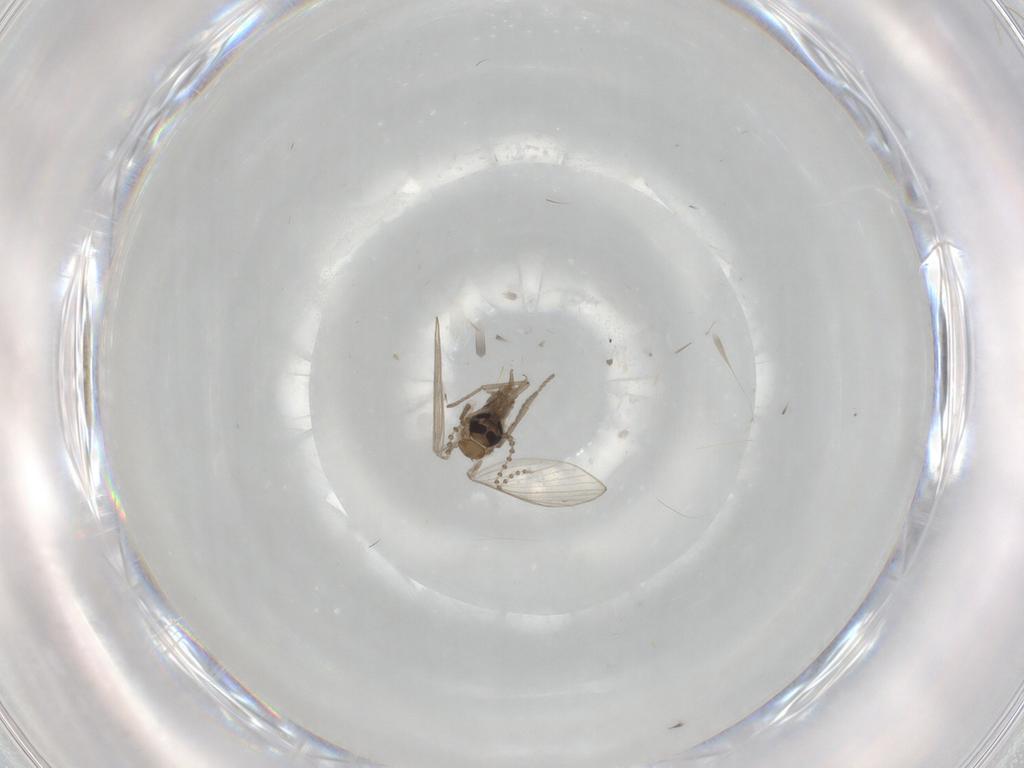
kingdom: Animalia
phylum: Arthropoda
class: Insecta
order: Diptera
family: Psychodidae
